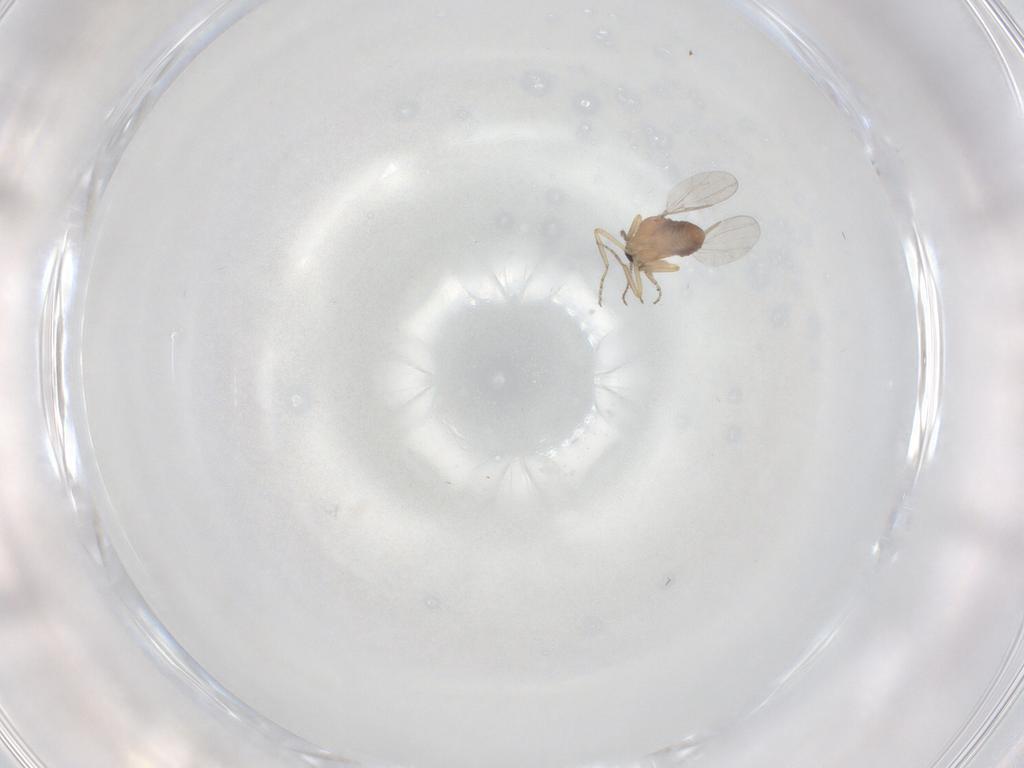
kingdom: Animalia
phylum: Arthropoda
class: Insecta
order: Diptera
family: Ceratopogonidae
